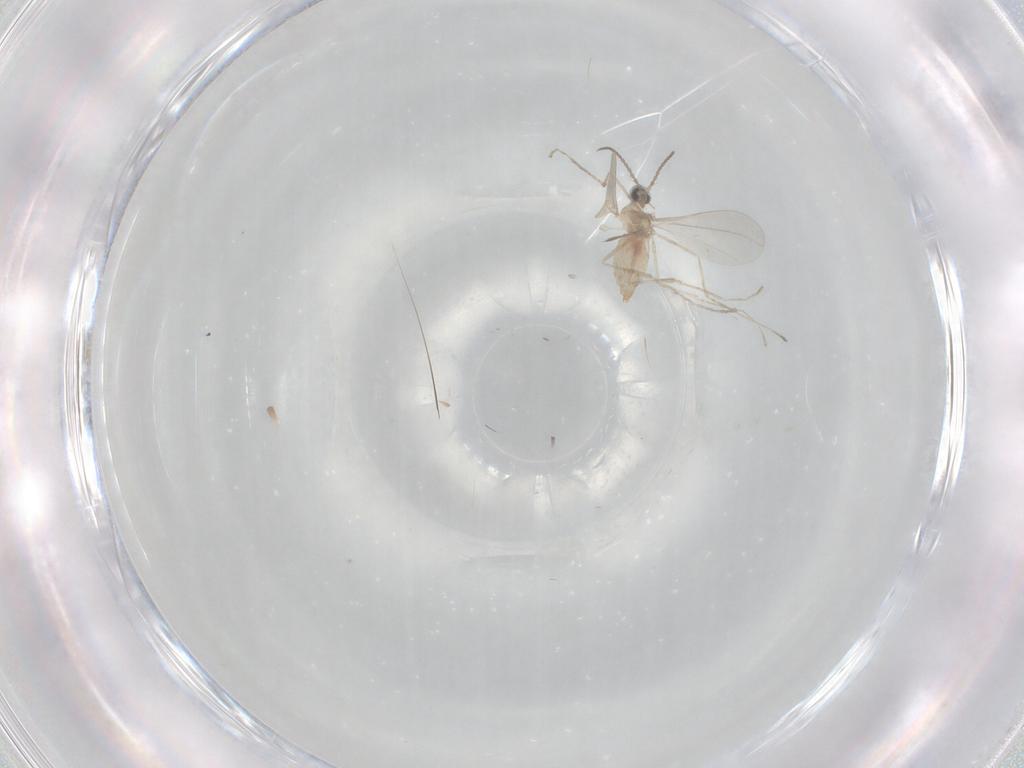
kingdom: Animalia
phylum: Arthropoda
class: Insecta
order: Diptera
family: Cecidomyiidae
